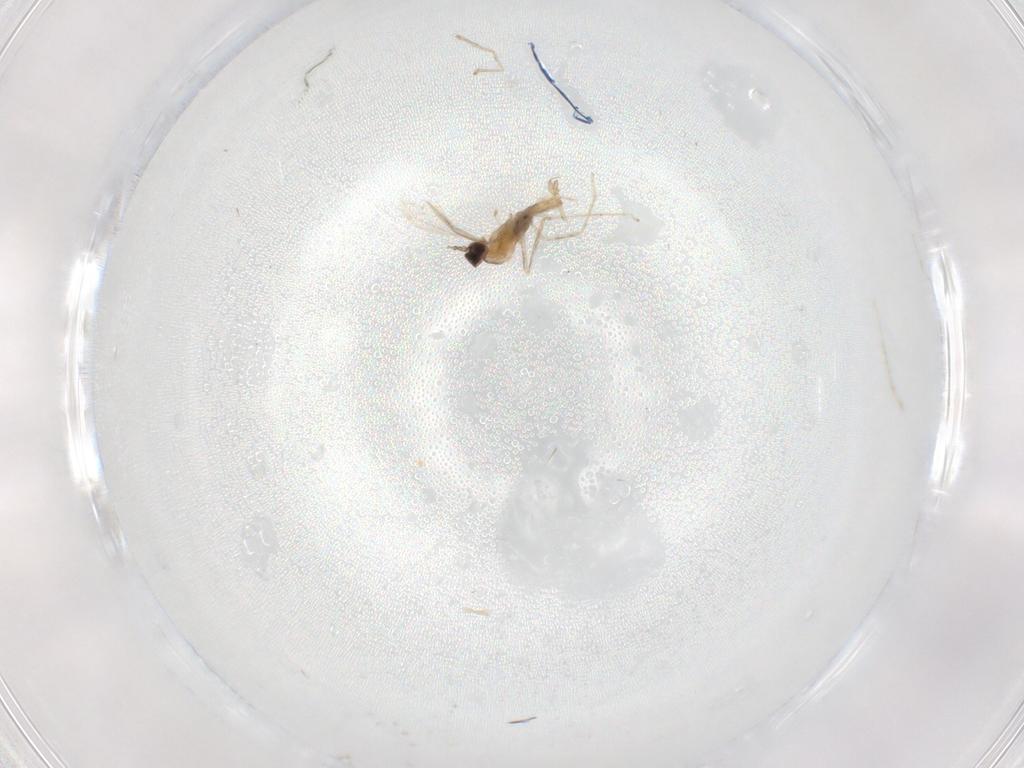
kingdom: Animalia
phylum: Arthropoda
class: Insecta
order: Diptera
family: Cecidomyiidae
